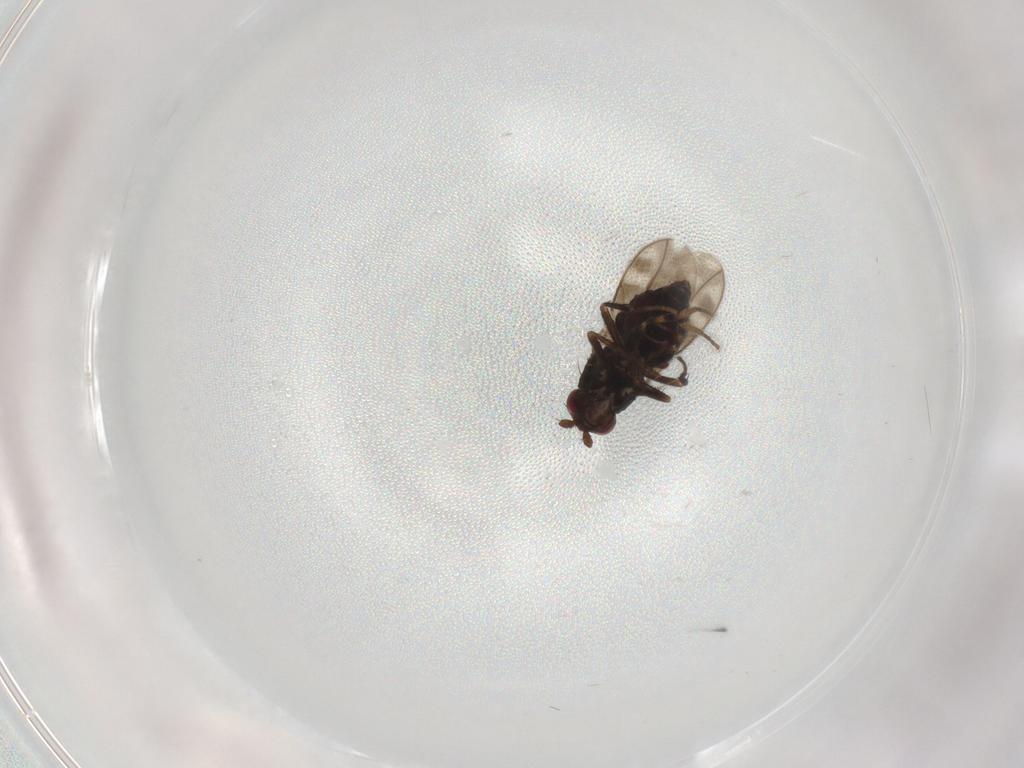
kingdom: Animalia
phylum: Arthropoda
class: Insecta
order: Diptera
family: Sphaeroceridae
